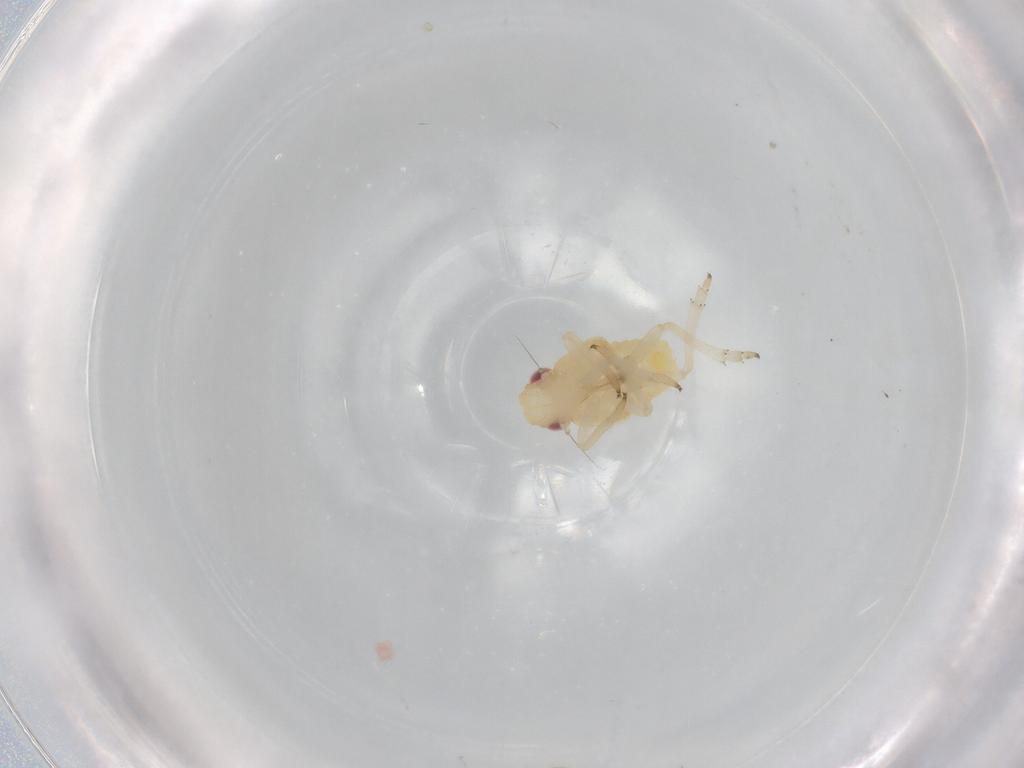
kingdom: Animalia
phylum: Arthropoda
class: Insecta
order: Hemiptera
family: Caliscelidae
